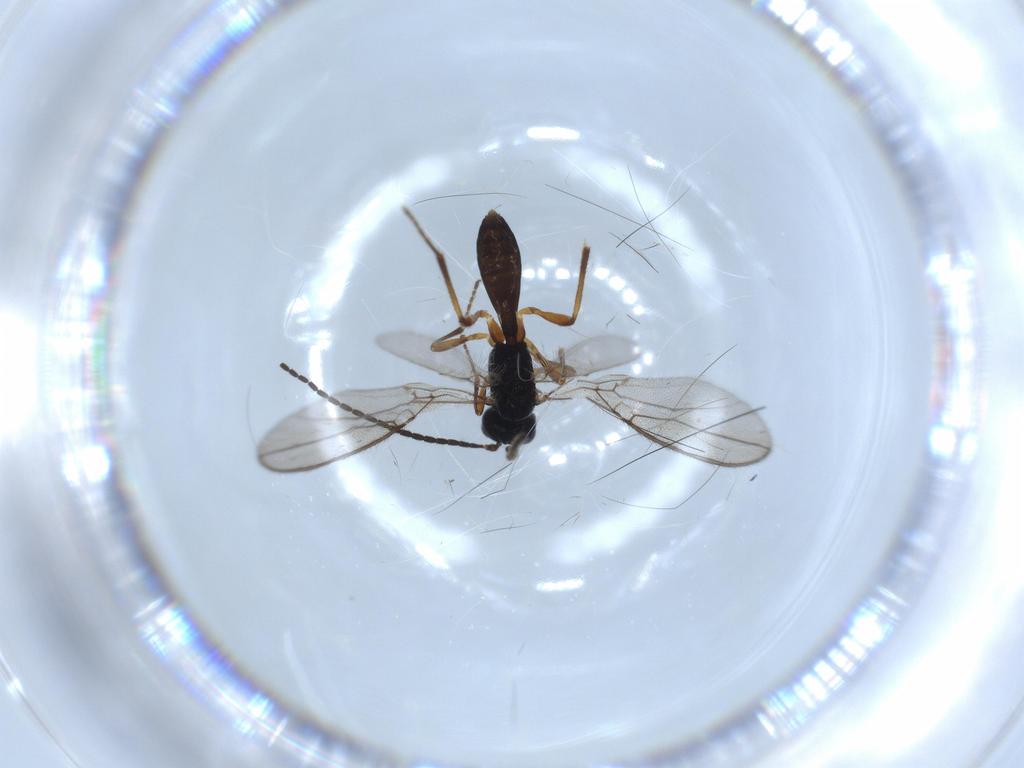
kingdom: Animalia
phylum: Arthropoda
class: Insecta
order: Hymenoptera
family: Braconidae
